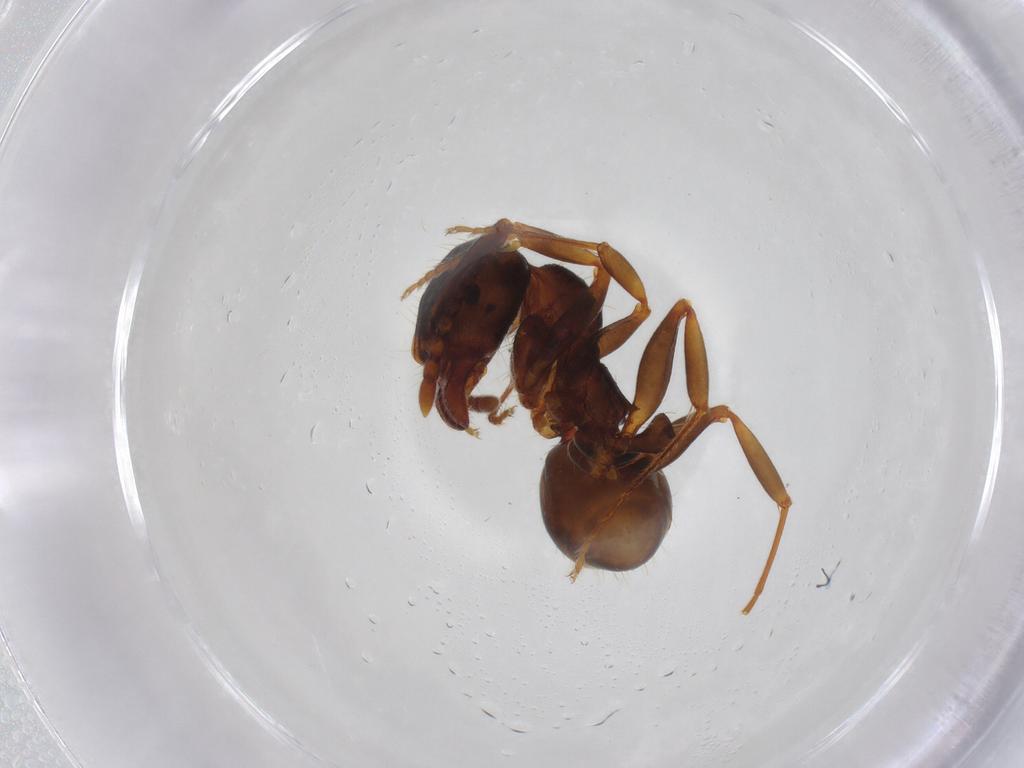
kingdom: Animalia
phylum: Arthropoda
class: Insecta
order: Hymenoptera
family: Formicidae
